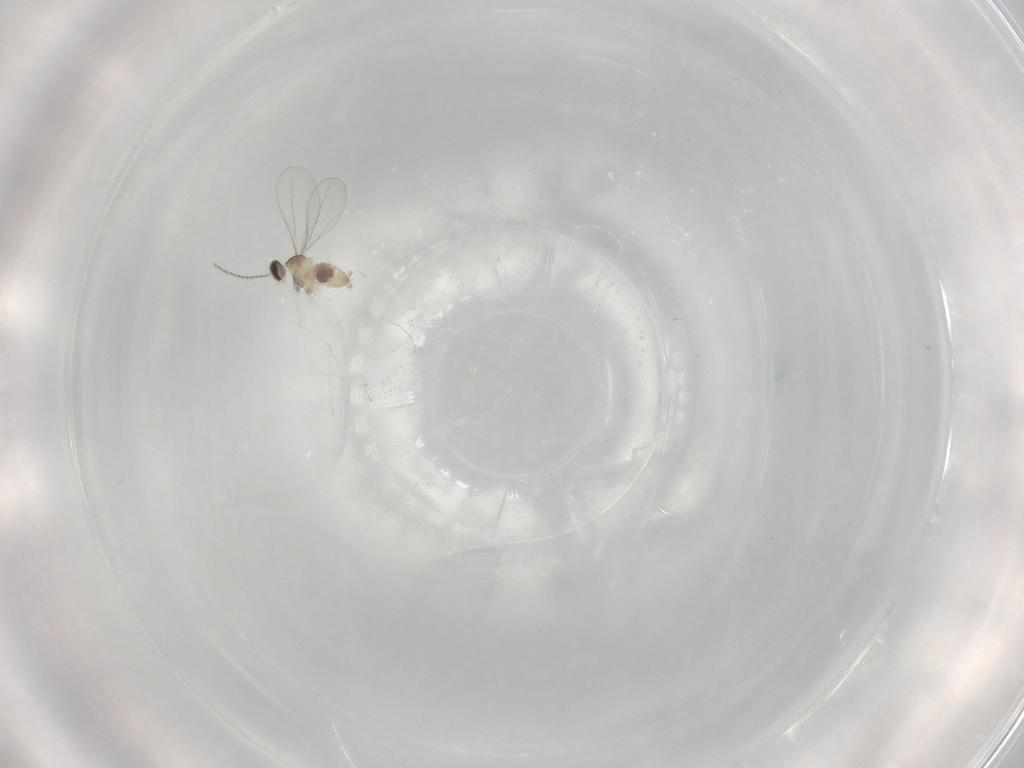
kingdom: Animalia
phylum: Arthropoda
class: Insecta
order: Diptera
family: Cecidomyiidae
